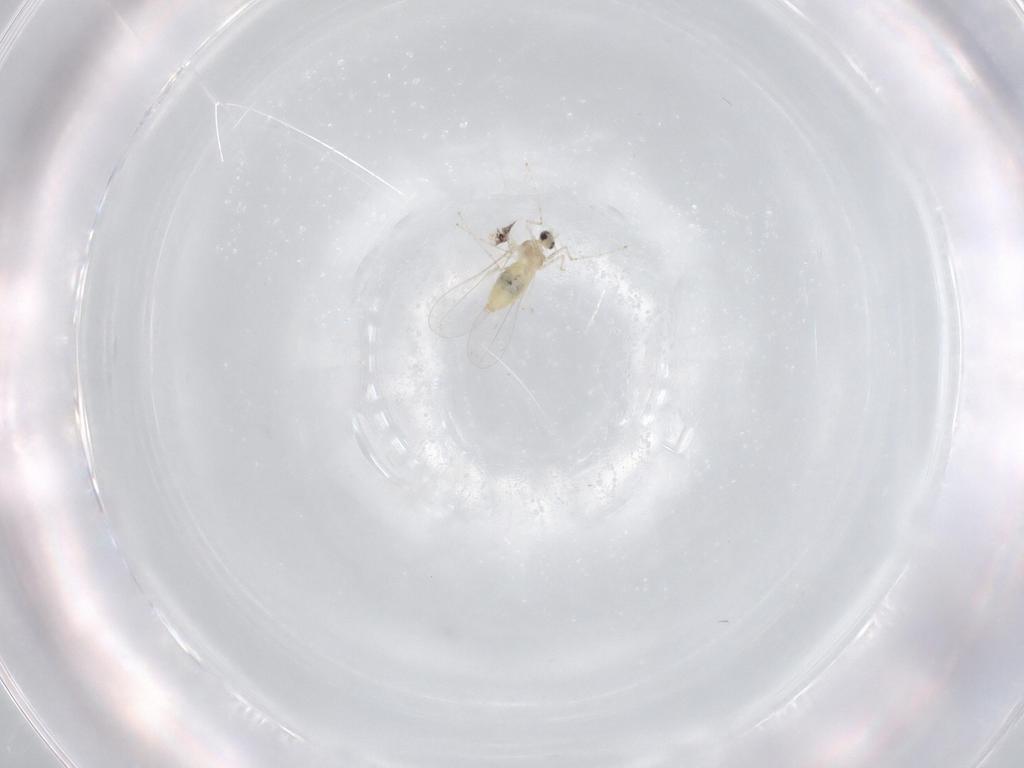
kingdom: Animalia
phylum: Arthropoda
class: Insecta
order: Diptera
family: Cecidomyiidae
